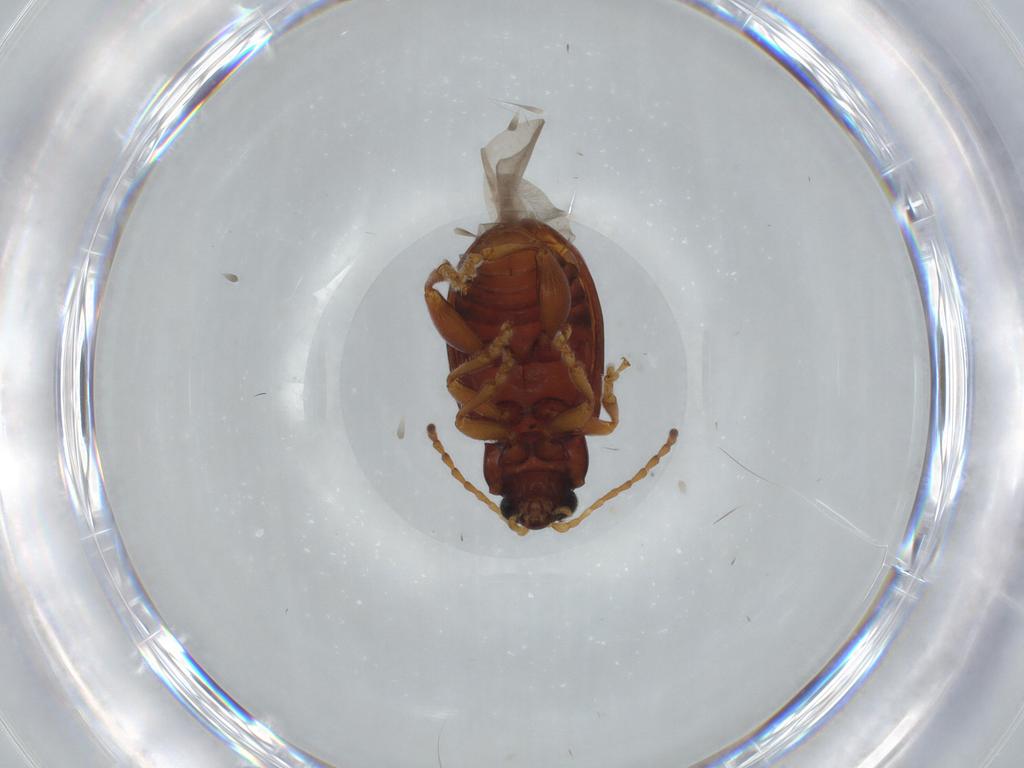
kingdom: Animalia
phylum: Arthropoda
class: Insecta
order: Coleoptera
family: Chrysomelidae
